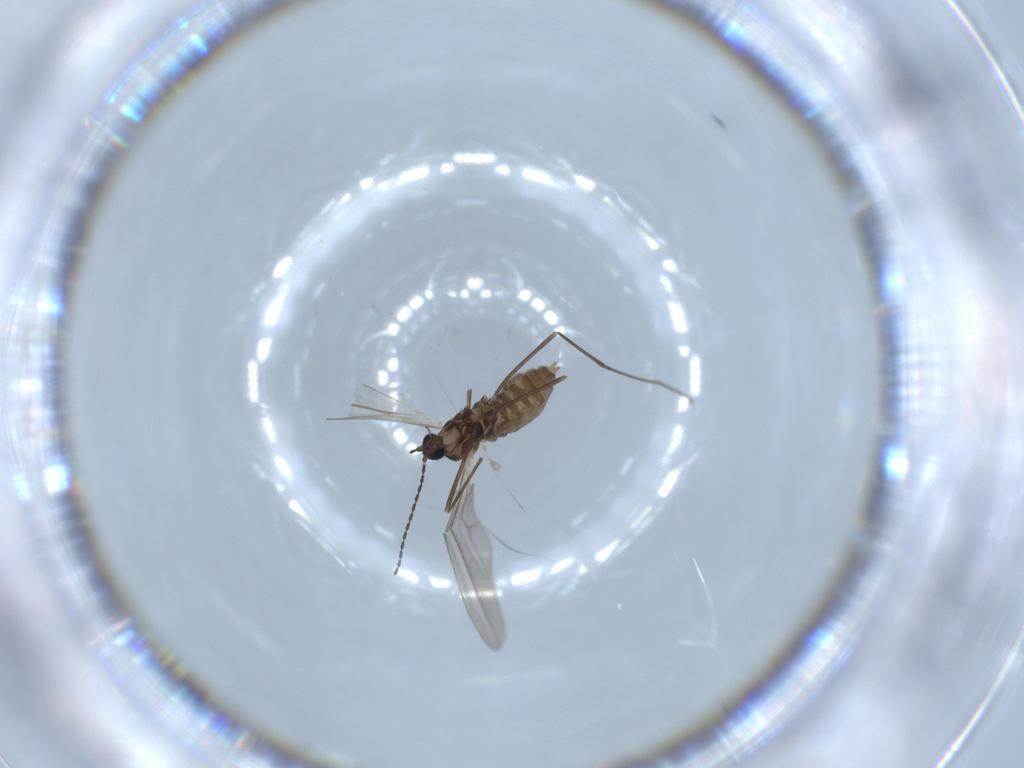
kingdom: Animalia
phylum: Arthropoda
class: Insecta
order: Diptera
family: Cecidomyiidae
